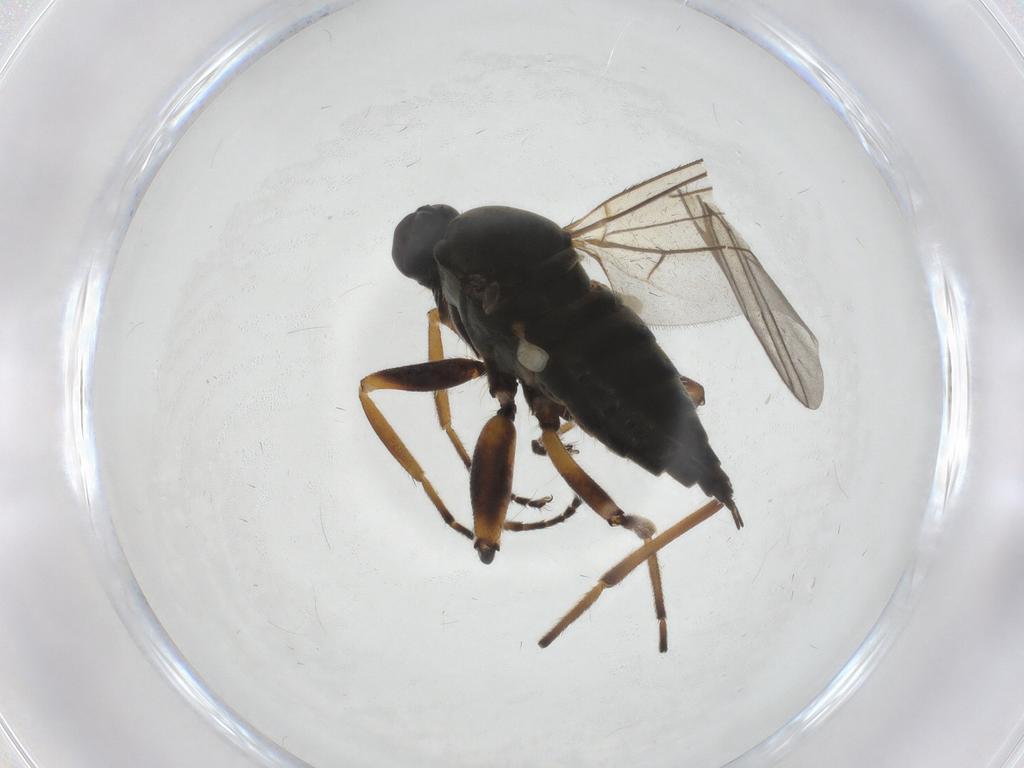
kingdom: Animalia
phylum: Arthropoda
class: Insecta
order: Diptera
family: Hybotidae
